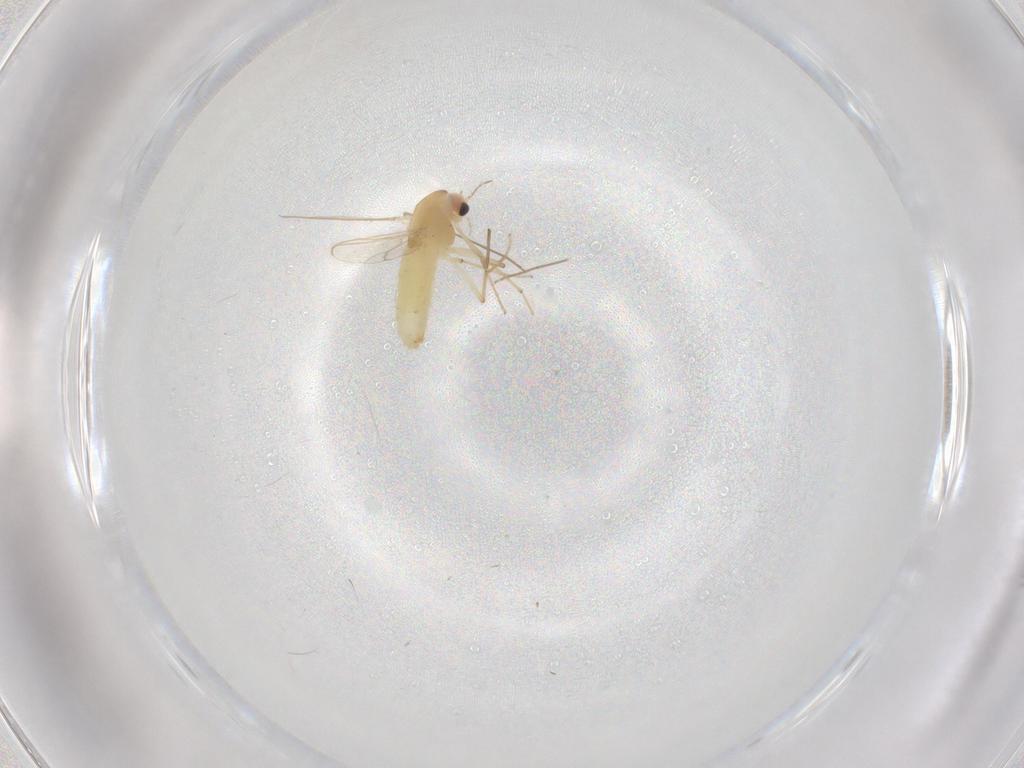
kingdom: Animalia
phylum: Arthropoda
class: Insecta
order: Diptera
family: Chironomidae
